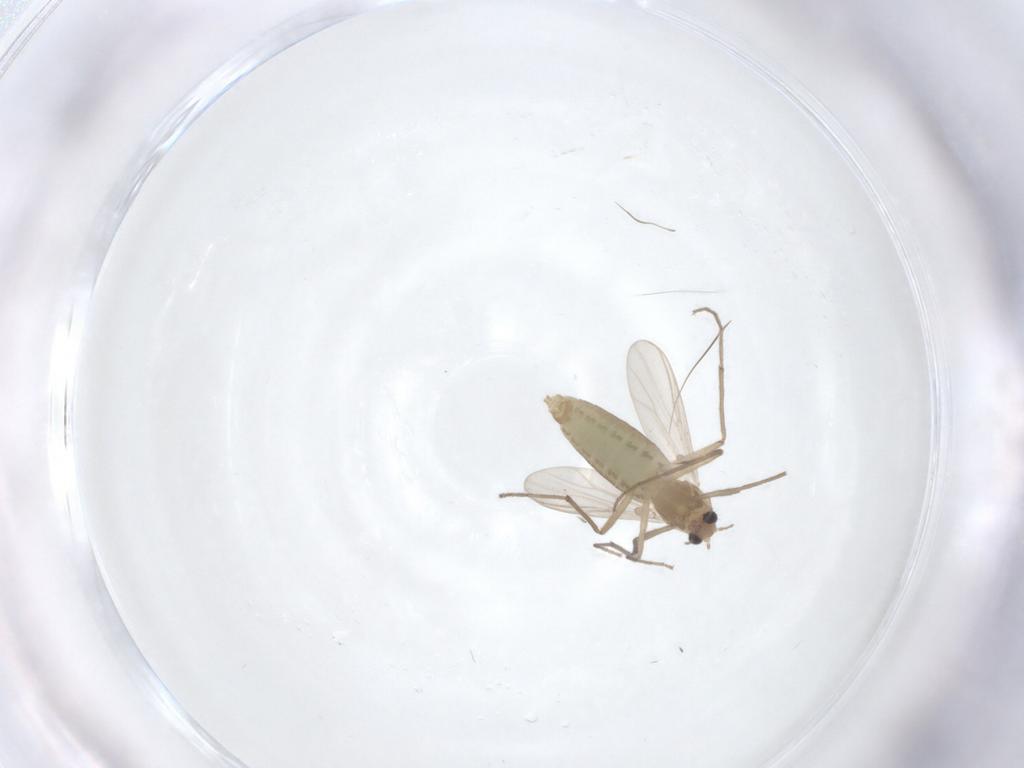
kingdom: Animalia
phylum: Arthropoda
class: Insecta
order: Diptera
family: Chironomidae
